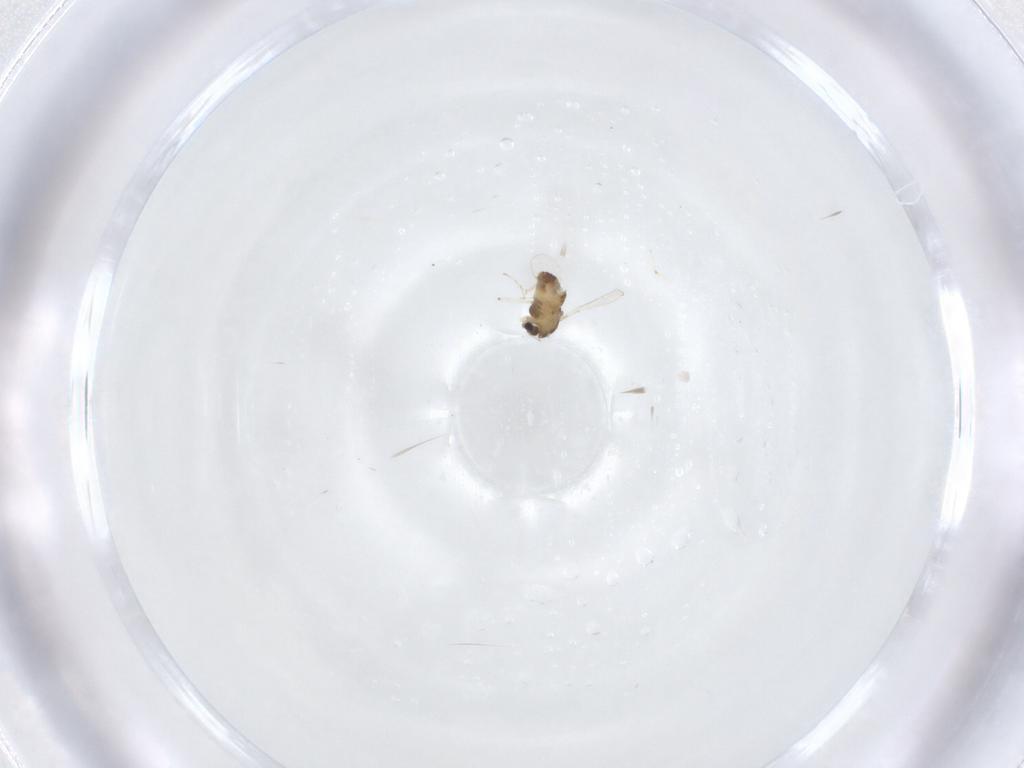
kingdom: Animalia
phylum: Arthropoda
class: Insecta
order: Diptera
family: Chironomidae
